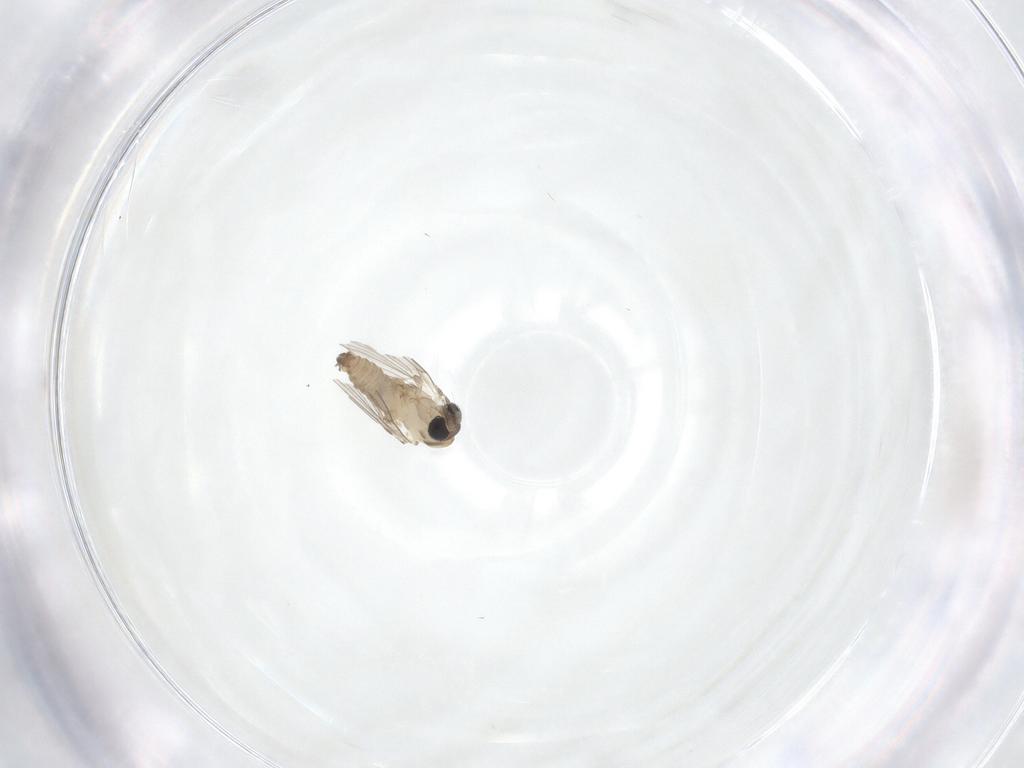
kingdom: Animalia
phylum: Arthropoda
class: Insecta
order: Diptera
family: Psychodidae
